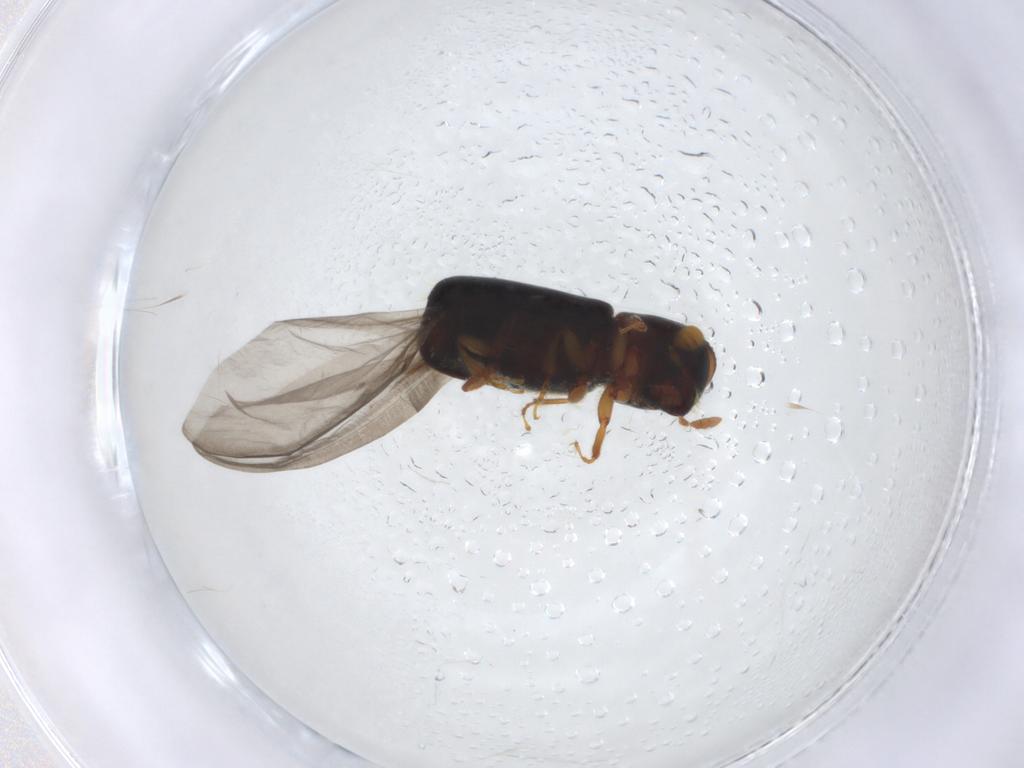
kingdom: Animalia
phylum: Arthropoda
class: Insecta
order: Coleoptera
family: Curculionidae
